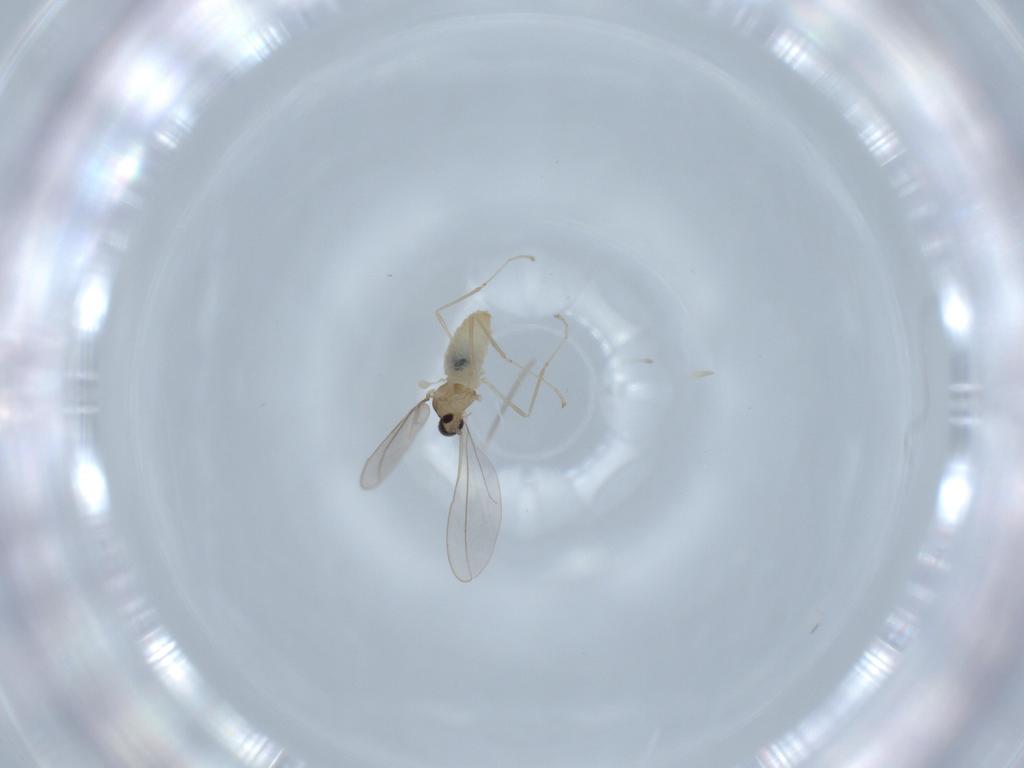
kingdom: Animalia
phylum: Arthropoda
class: Insecta
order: Diptera
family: Cecidomyiidae
